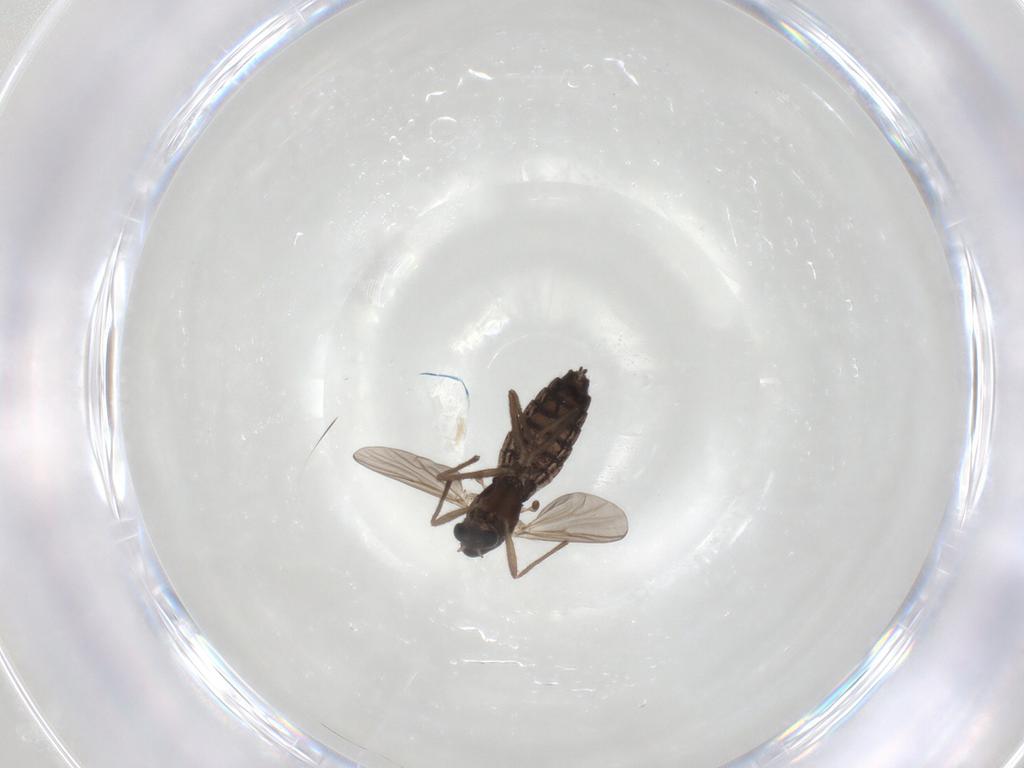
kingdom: Animalia
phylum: Arthropoda
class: Insecta
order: Diptera
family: Chironomidae
